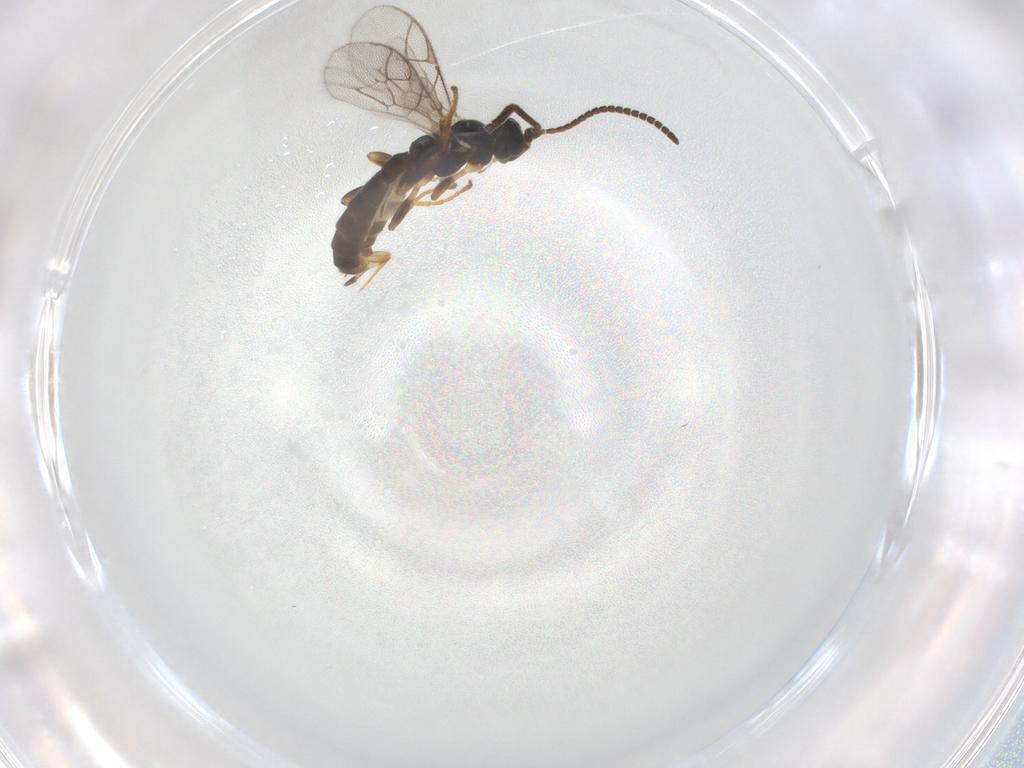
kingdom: Animalia
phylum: Arthropoda
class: Insecta
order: Hymenoptera
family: Ichneumonidae
